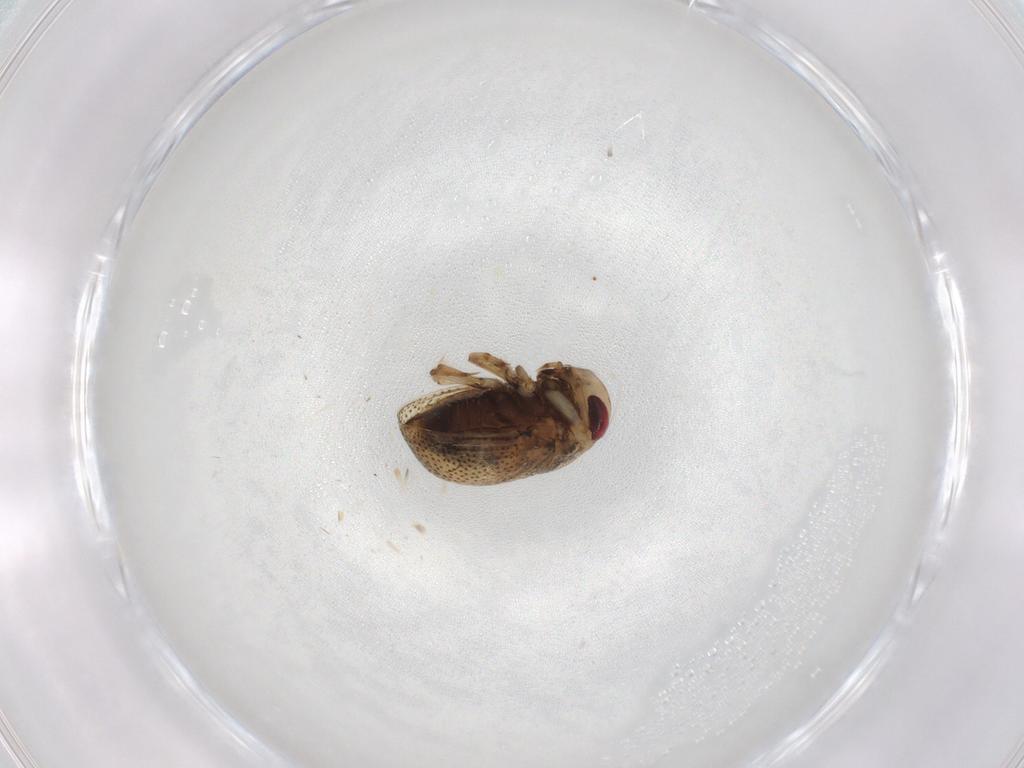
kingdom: Animalia
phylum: Arthropoda
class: Insecta
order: Hemiptera
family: Pleidae
